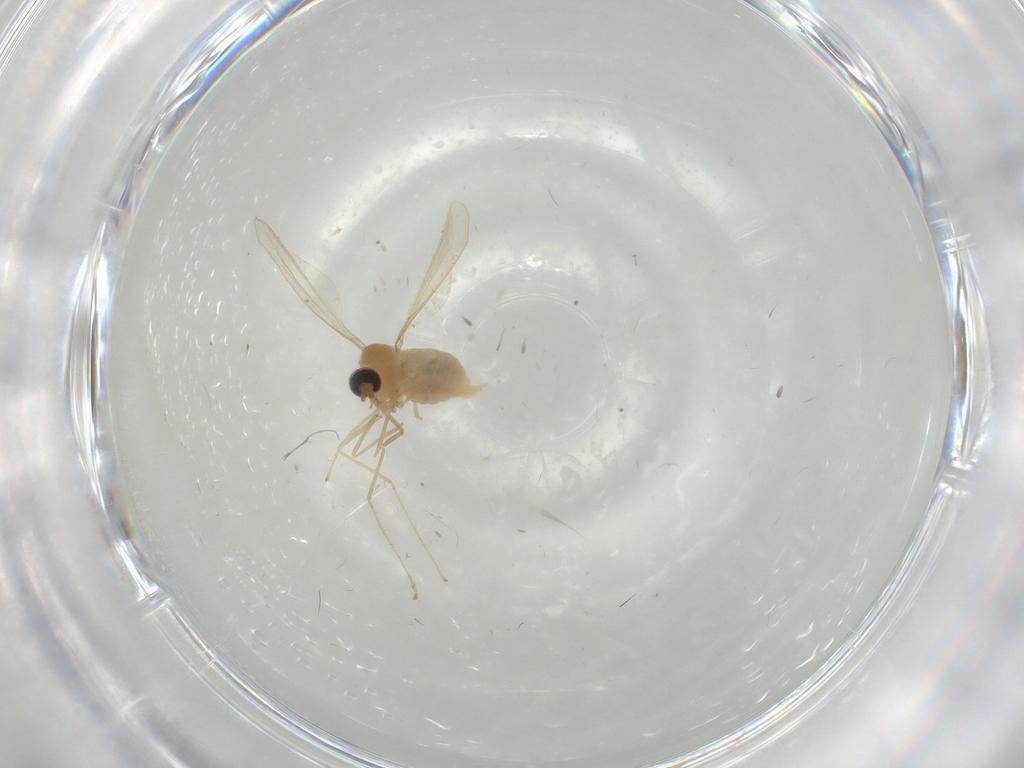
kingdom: Animalia
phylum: Arthropoda
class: Insecta
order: Diptera
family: Cecidomyiidae
